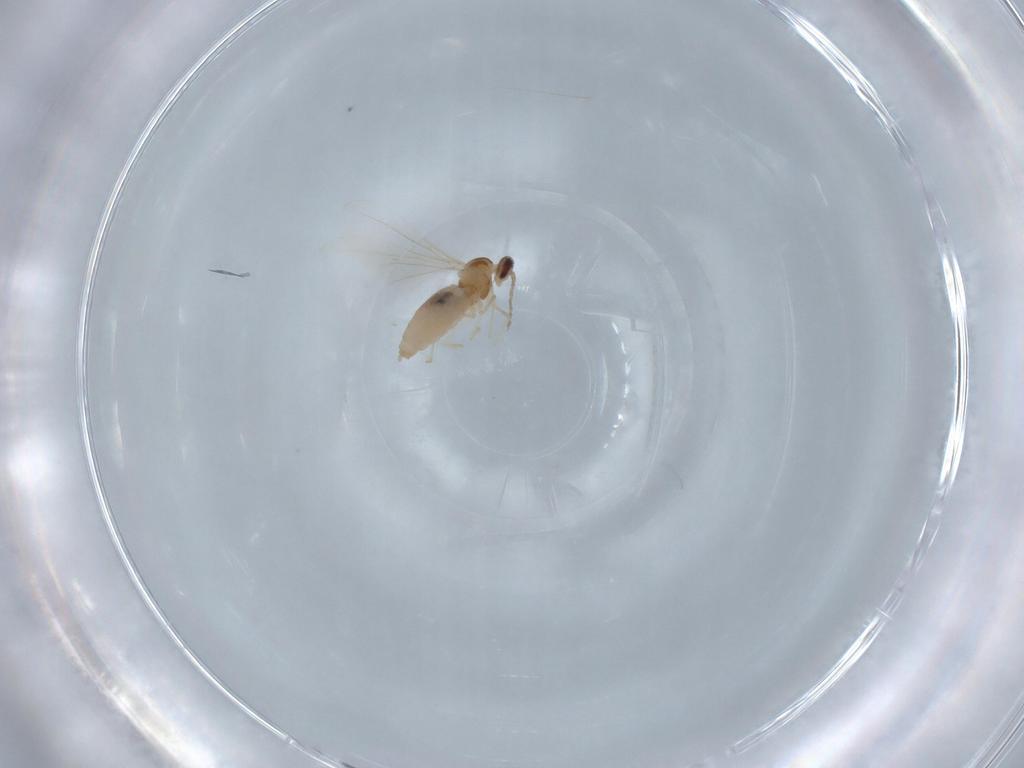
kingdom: Animalia
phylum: Arthropoda
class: Insecta
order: Diptera
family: Cecidomyiidae
